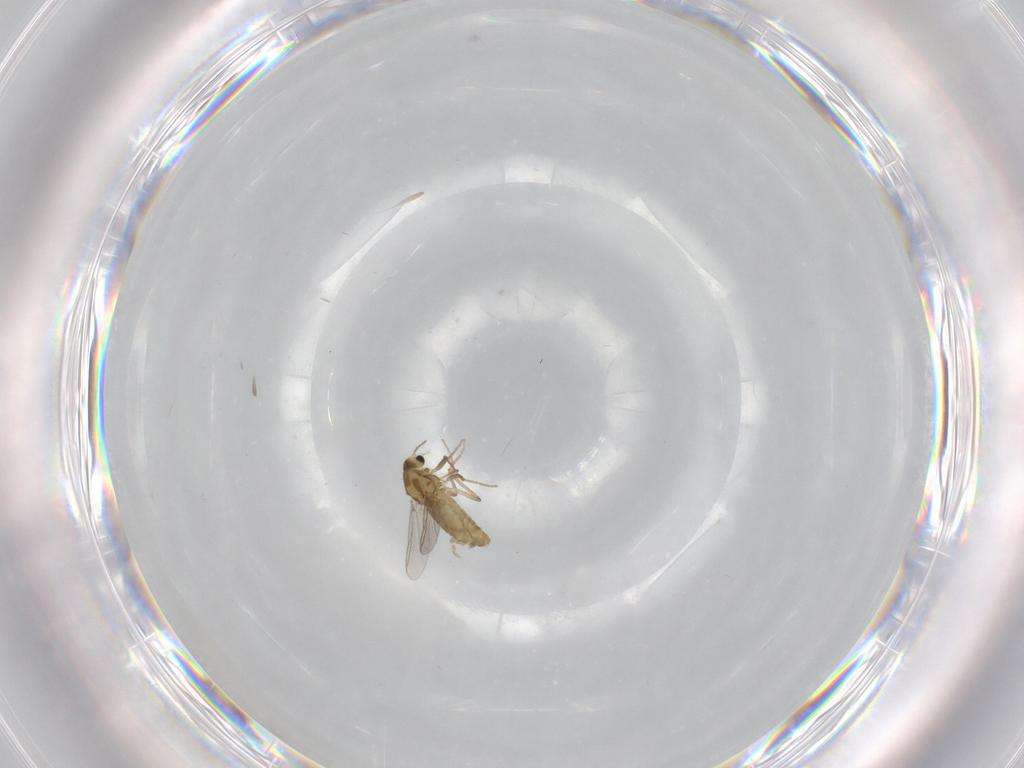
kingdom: Animalia
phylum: Arthropoda
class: Insecta
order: Diptera
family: Chironomidae
